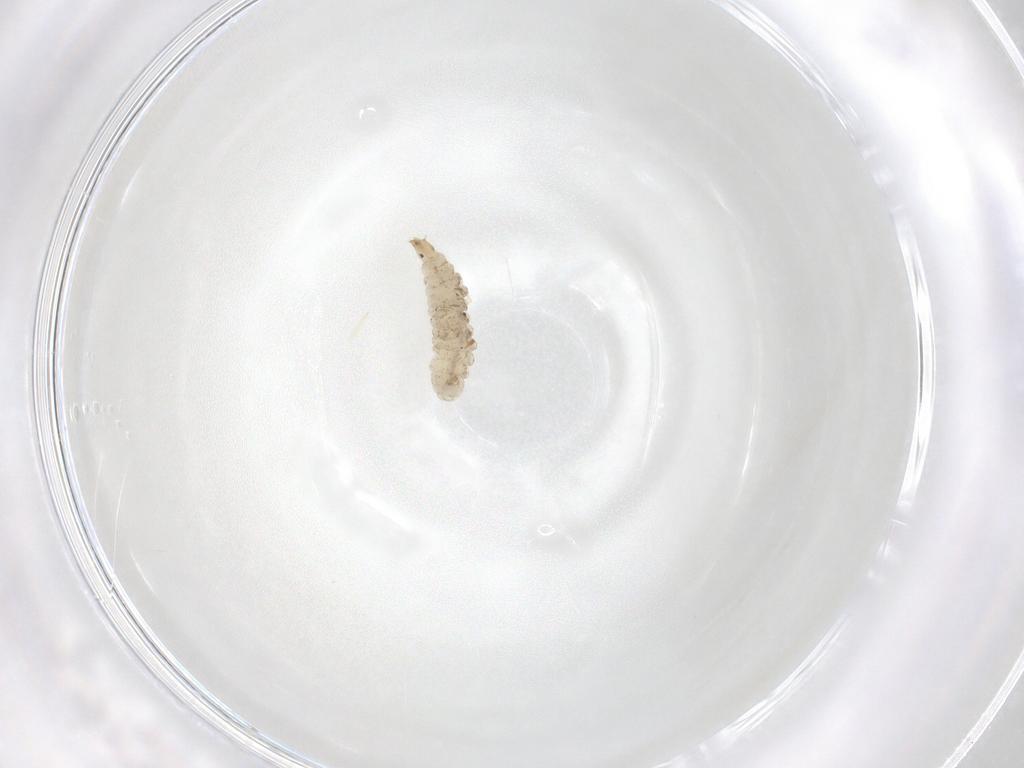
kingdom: Animalia
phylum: Arthropoda
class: Insecta
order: Diptera
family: Stratiomyidae
